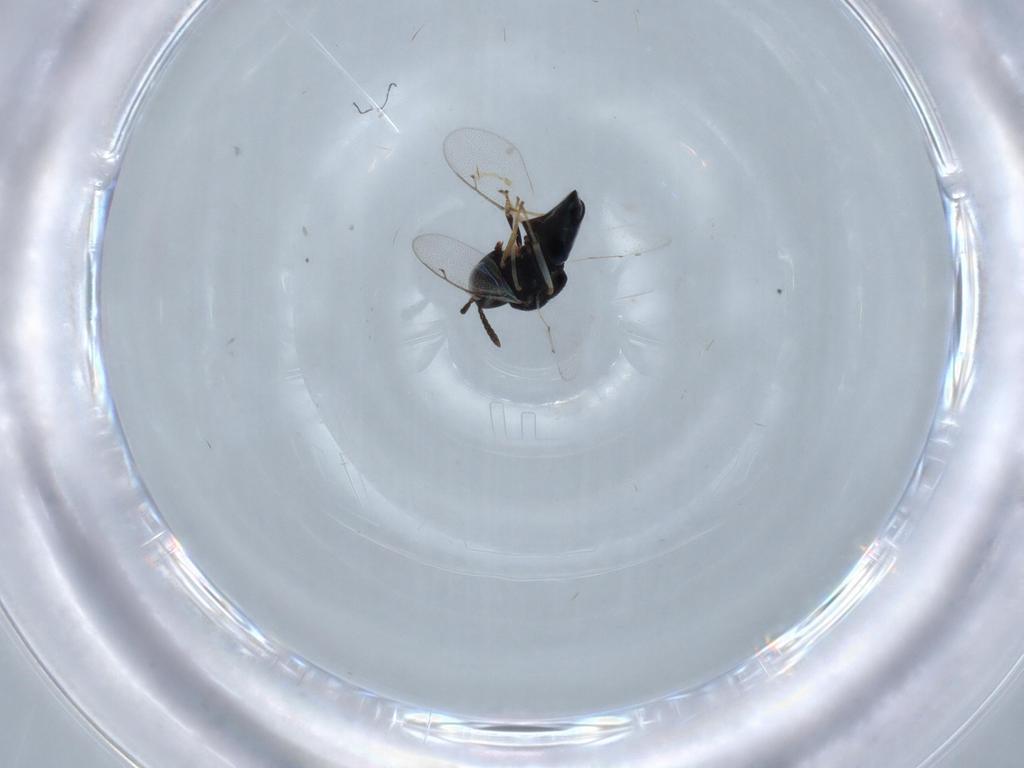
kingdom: Animalia
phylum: Arthropoda
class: Insecta
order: Hymenoptera
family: Pteromalidae
